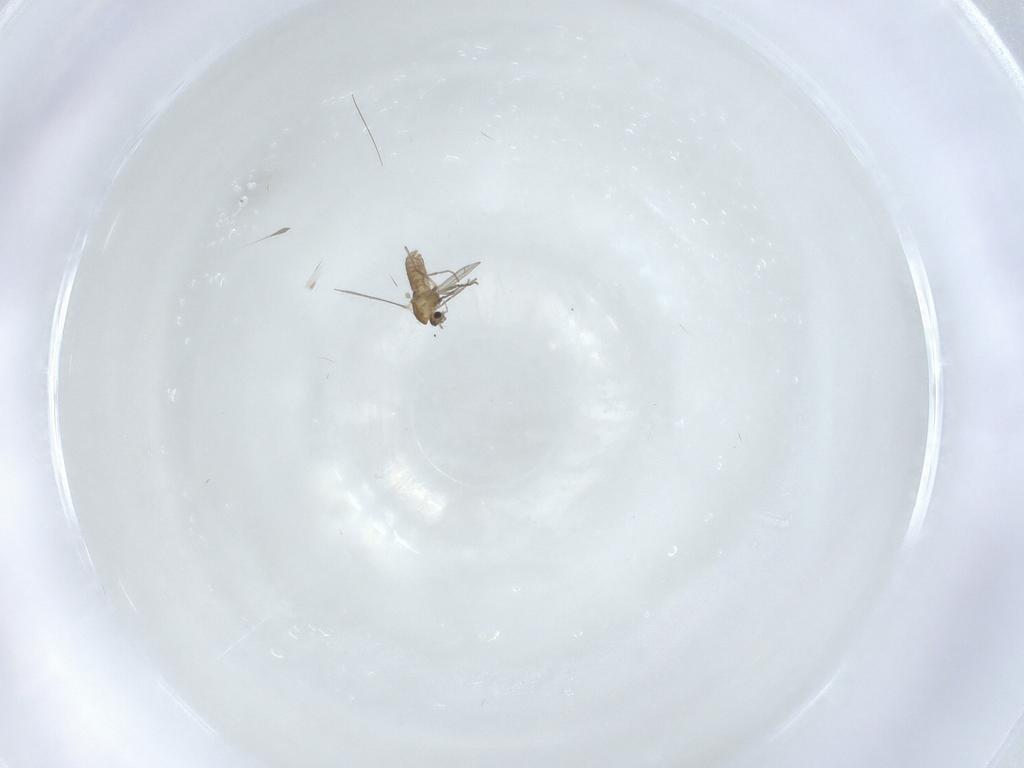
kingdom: Animalia
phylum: Arthropoda
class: Insecta
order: Diptera
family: Chironomidae
